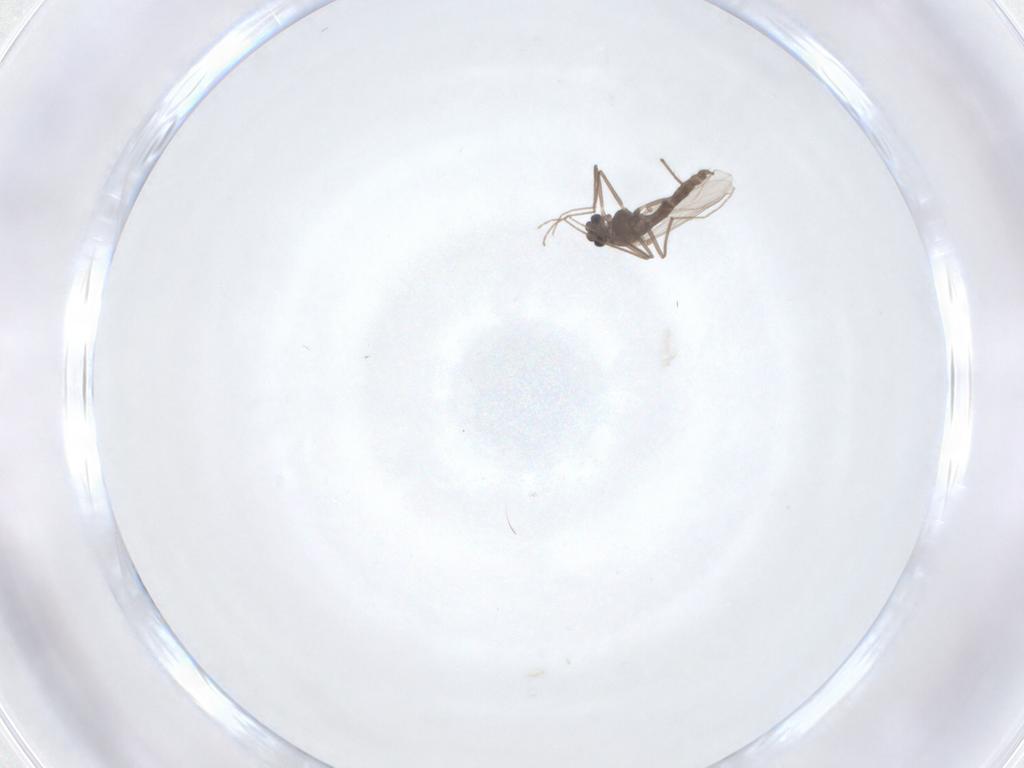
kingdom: Animalia
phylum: Arthropoda
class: Insecta
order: Diptera
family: Chironomidae
